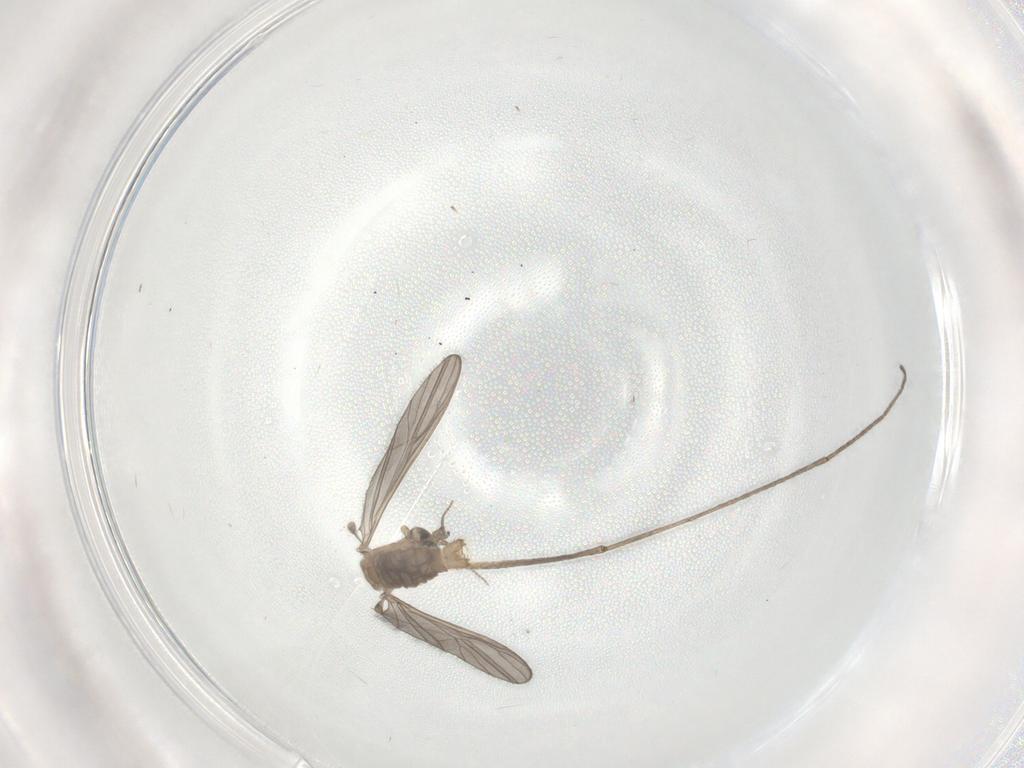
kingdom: Animalia
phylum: Arthropoda
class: Insecta
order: Diptera
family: Limoniidae
